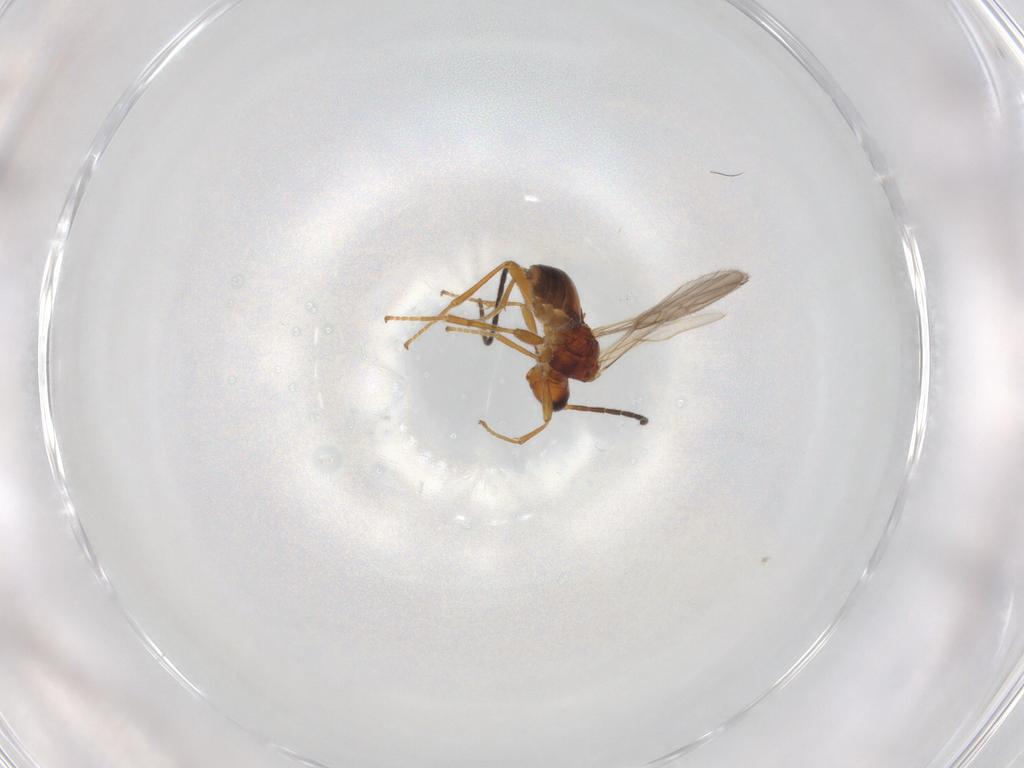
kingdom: Animalia
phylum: Arthropoda
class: Insecta
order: Hymenoptera
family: Braconidae
